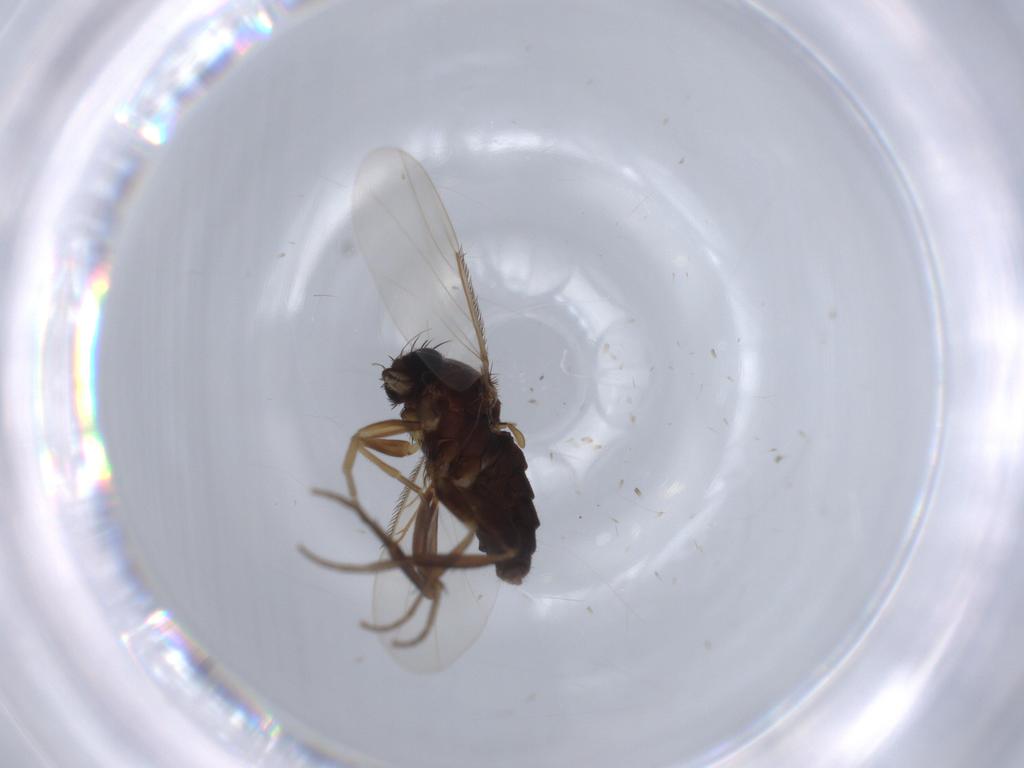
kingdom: Animalia
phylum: Arthropoda
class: Insecta
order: Diptera
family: Phoridae
